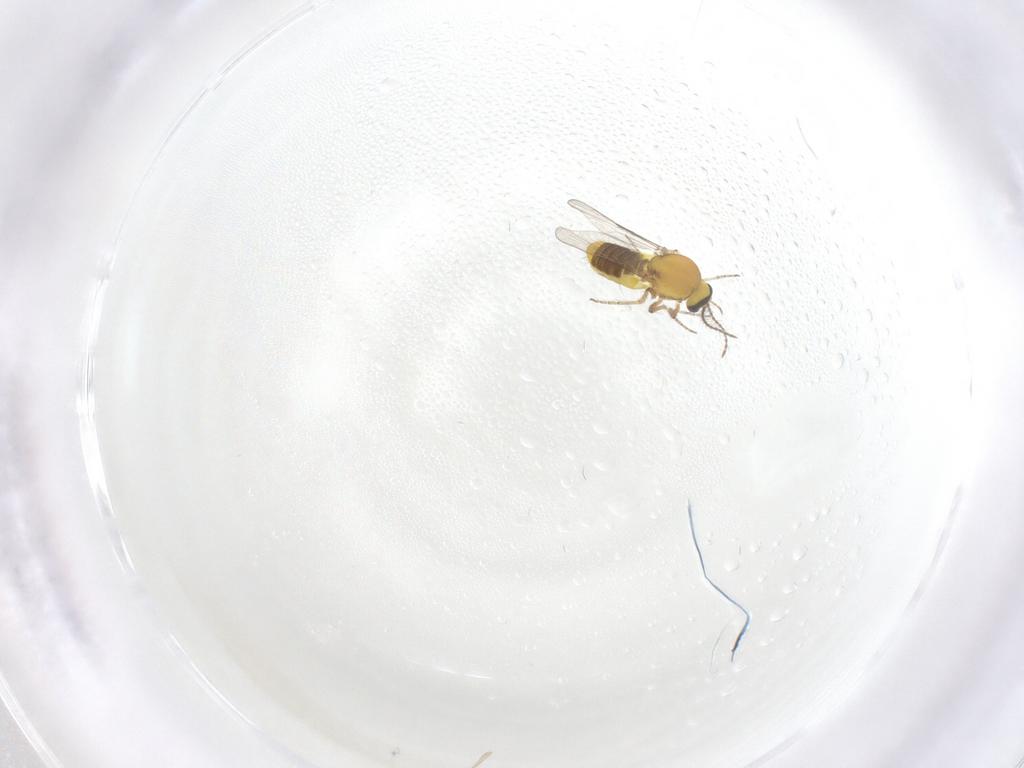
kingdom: Animalia
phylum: Arthropoda
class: Insecta
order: Diptera
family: Ceratopogonidae
